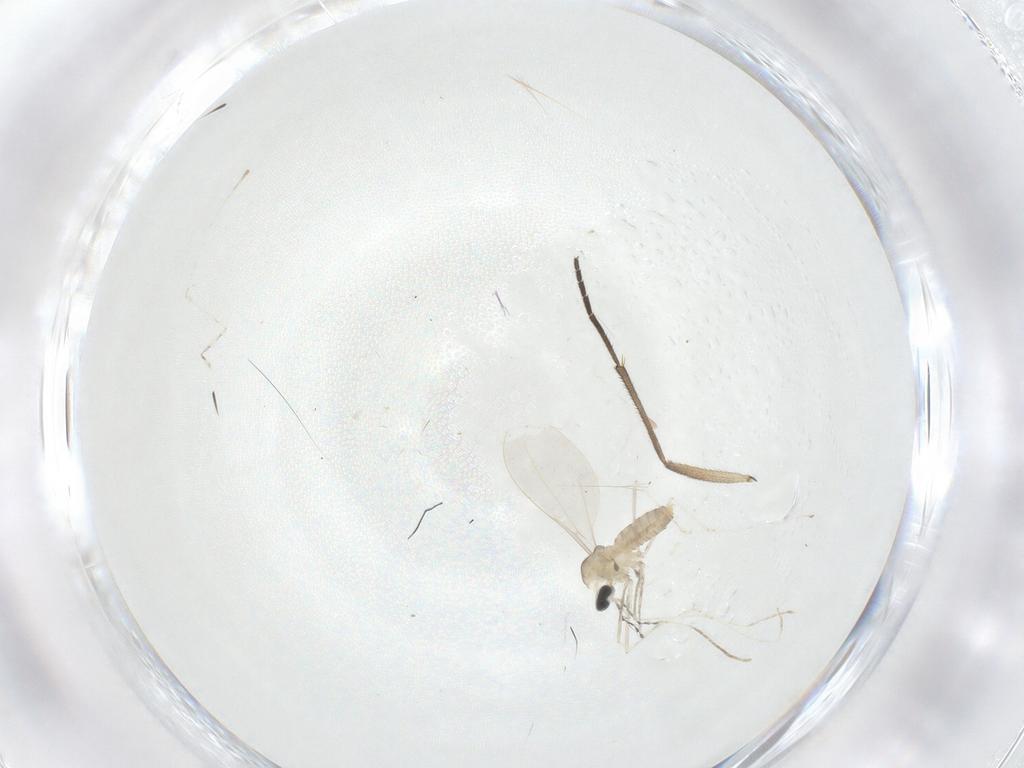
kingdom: Animalia
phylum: Arthropoda
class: Insecta
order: Diptera
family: Cecidomyiidae
